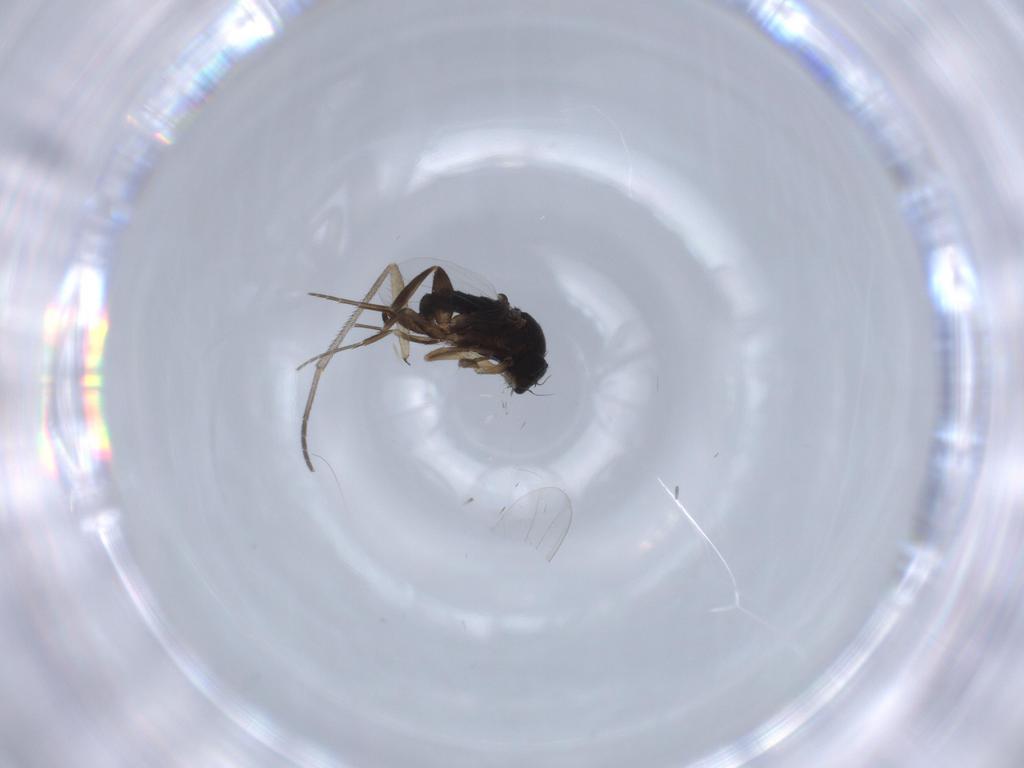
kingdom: Animalia
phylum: Arthropoda
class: Insecta
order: Diptera
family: Phoridae
